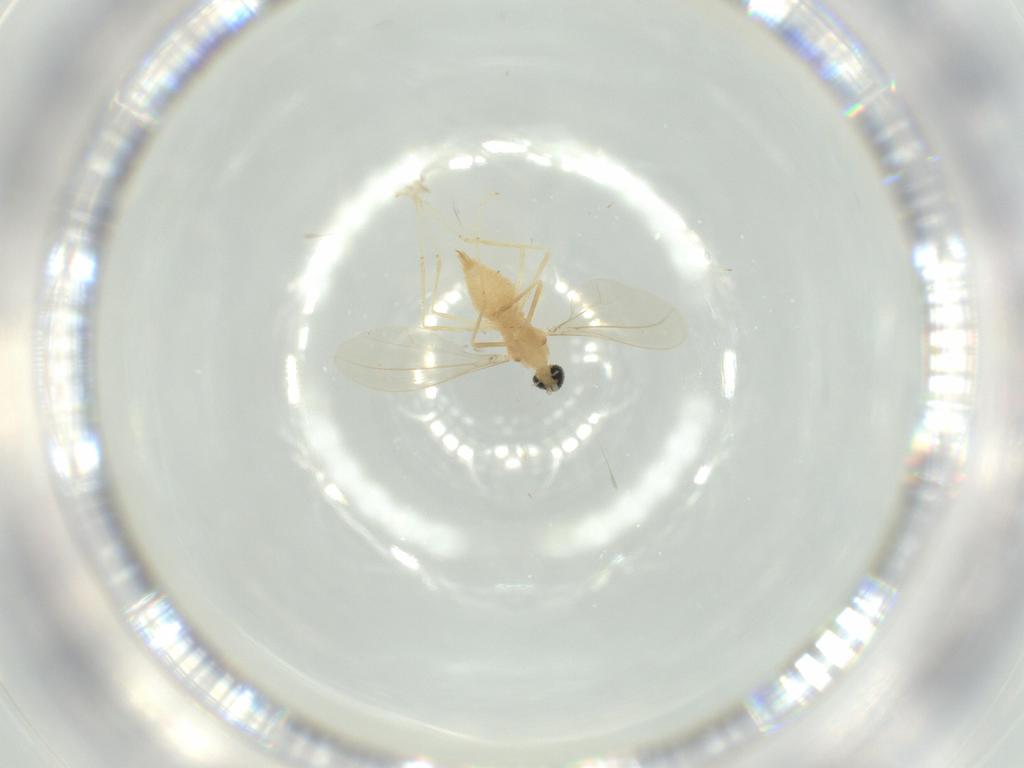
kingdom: Animalia
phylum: Arthropoda
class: Insecta
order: Diptera
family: Cecidomyiidae
